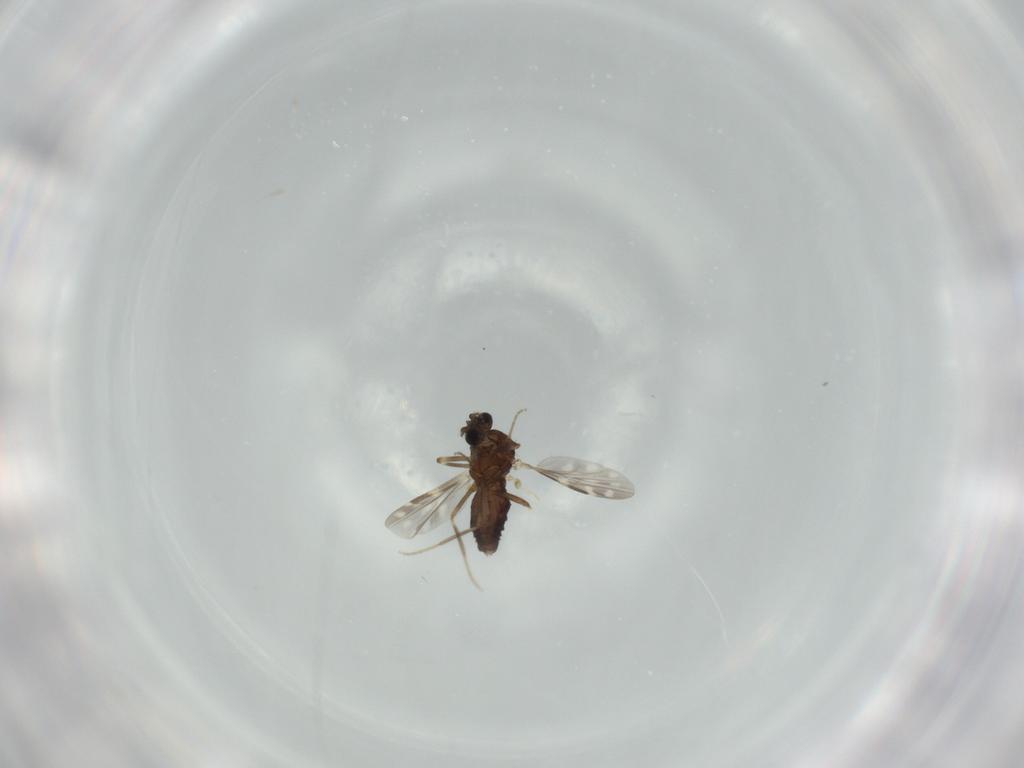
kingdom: Animalia
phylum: Arthropoda
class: Insecta
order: Diptera
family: Ceratopogonidae
